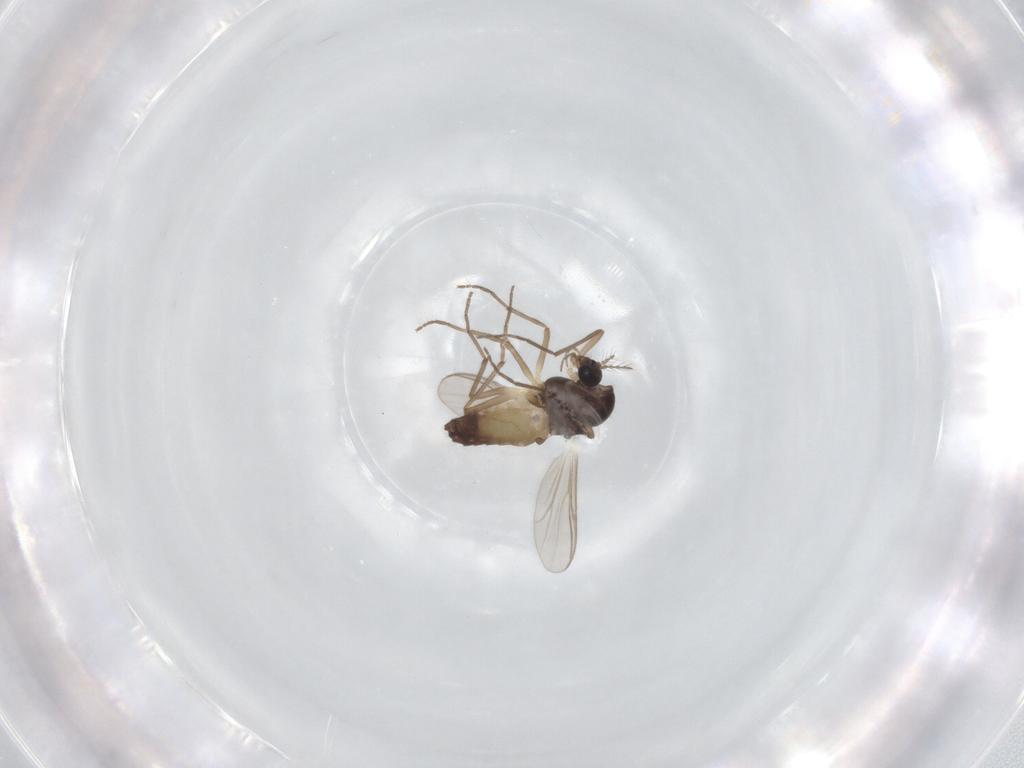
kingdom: Animalia
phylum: Arthropoda
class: Insecta
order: Diptera
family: Chironomidae
